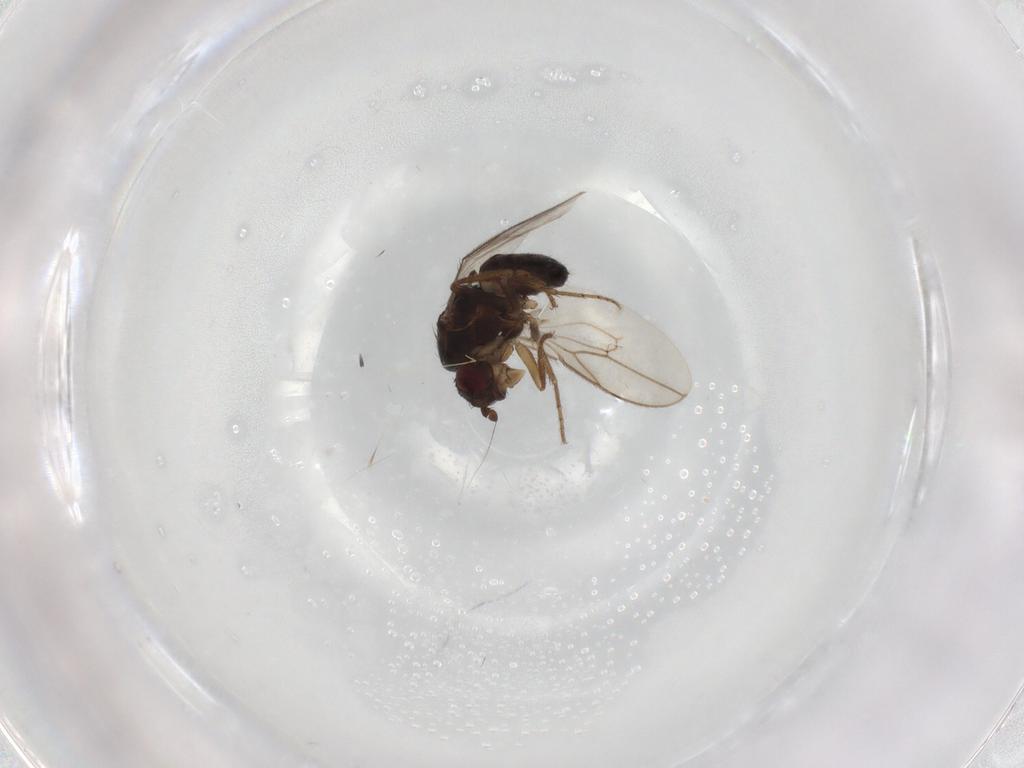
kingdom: Animalia
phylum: Arthropoda
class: Insecta
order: Diptera
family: Sphaeroceridae
